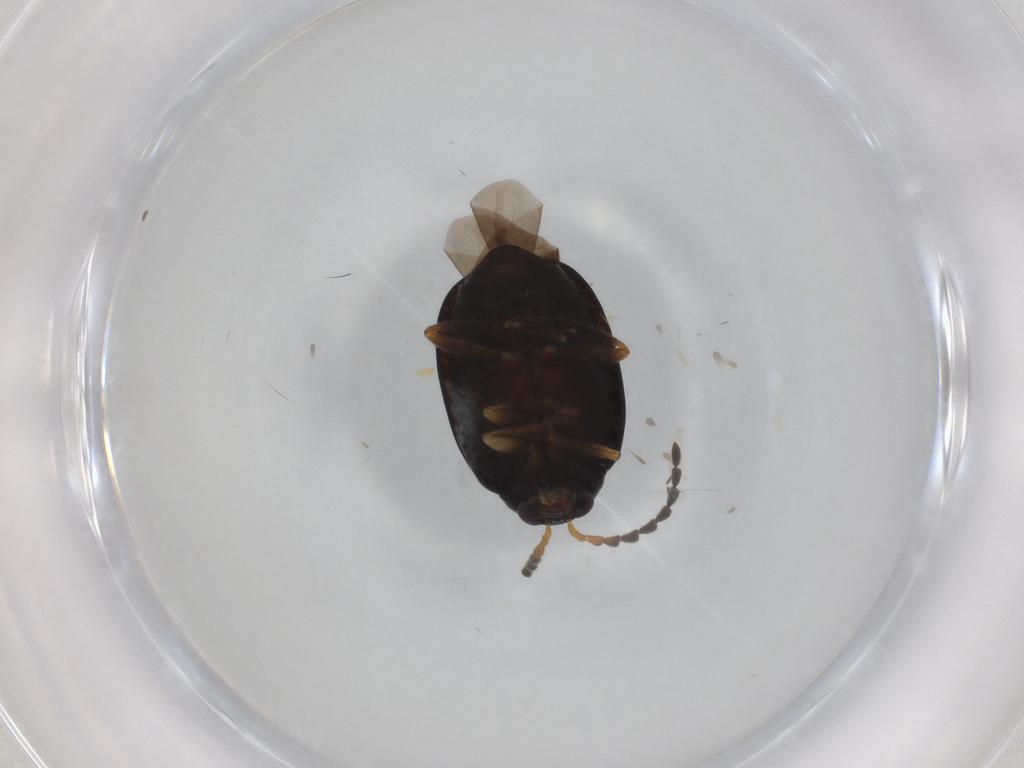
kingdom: Animalia
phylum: Arthropoda
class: Insecta
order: Coleoptera
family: Chrysomelidae
